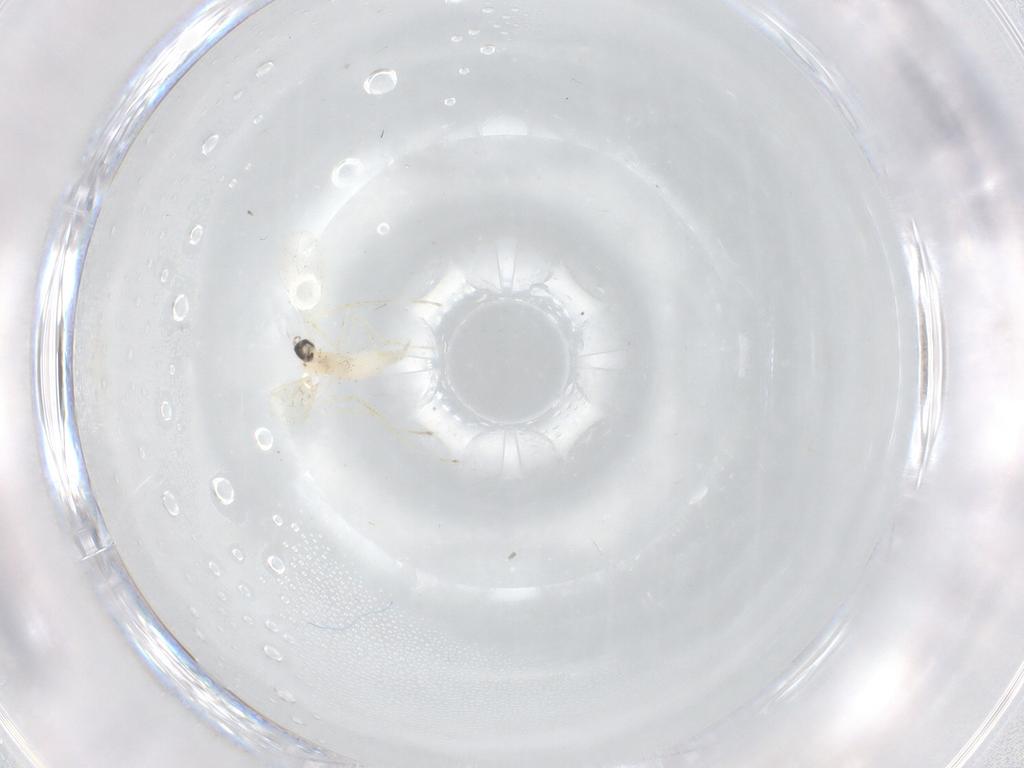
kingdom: Animalia
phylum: Arthropoda
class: Insecta
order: Diptera
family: Cecidomyiidae
